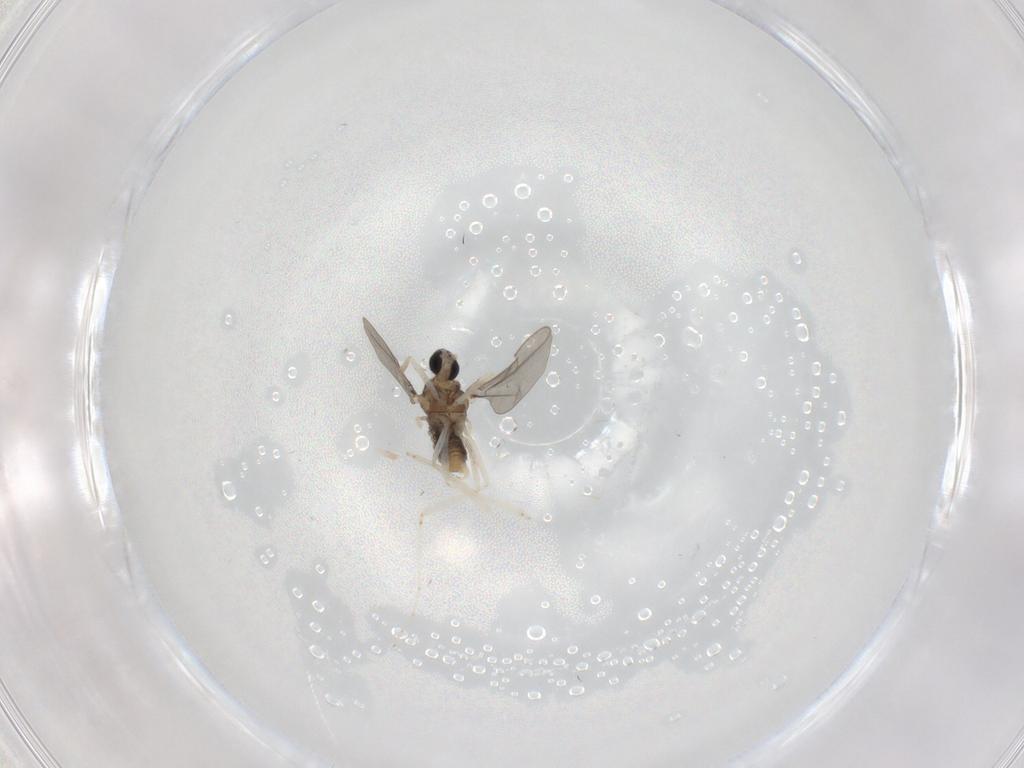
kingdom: Animalia
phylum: Arthropoda
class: Insecta
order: Diptera
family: Cecidomyiidae
